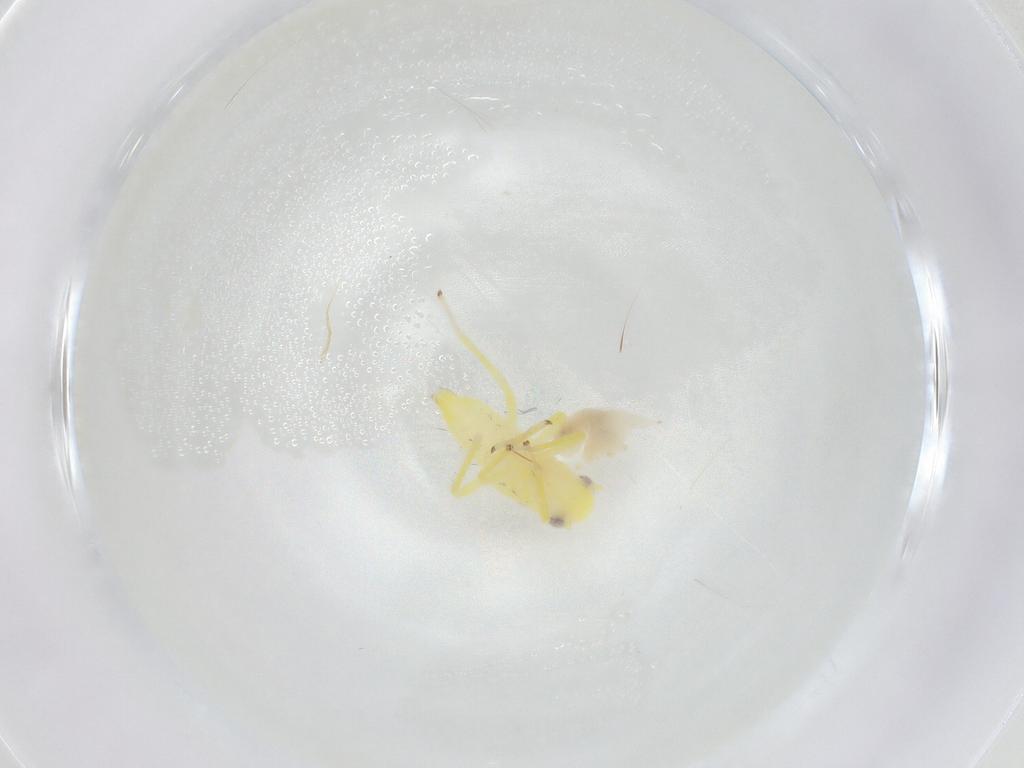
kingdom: Animalia
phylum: Arthropoda
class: Insecta
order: Hemiptera
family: Cicadellidae
